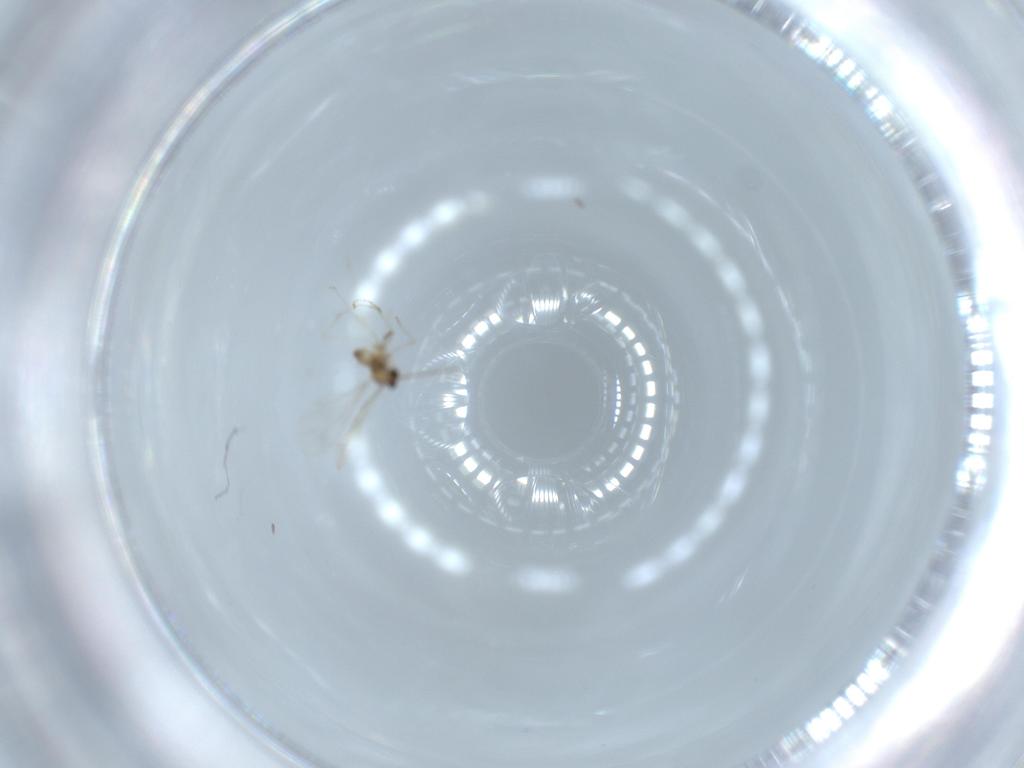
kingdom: Animalia
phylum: Arthropoda
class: Insecta
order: Diptera
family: Cecidomyiidae
